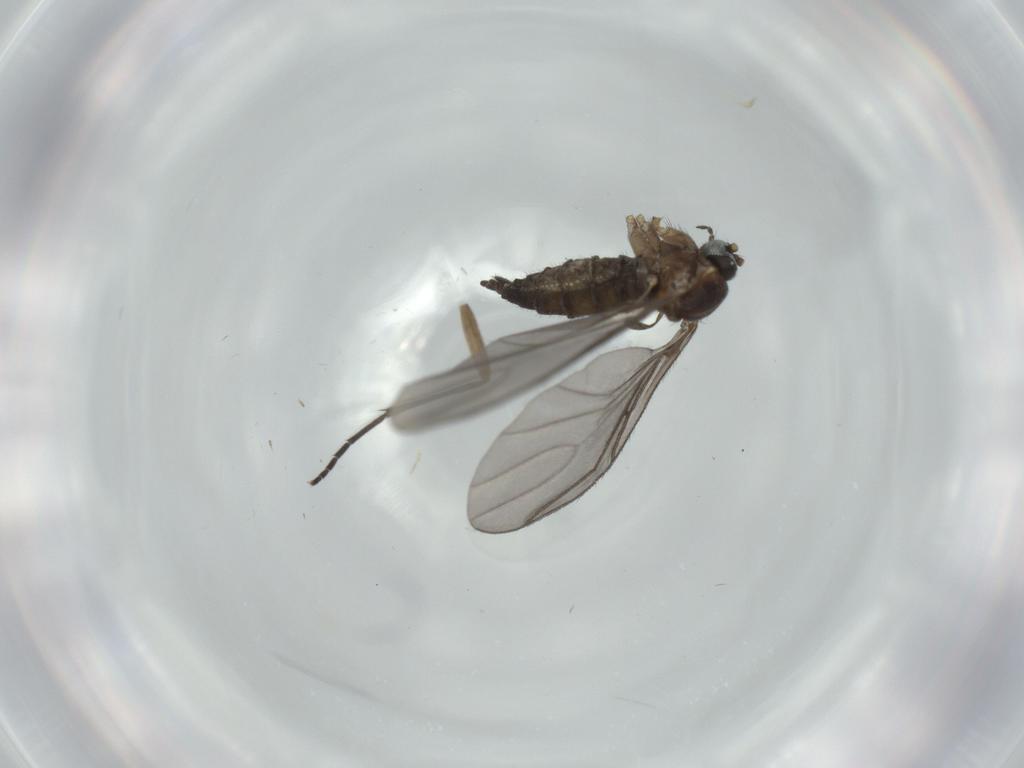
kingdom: Animalia
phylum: Arthropoda
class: Insecta
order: Diptera
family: Sciaridae
